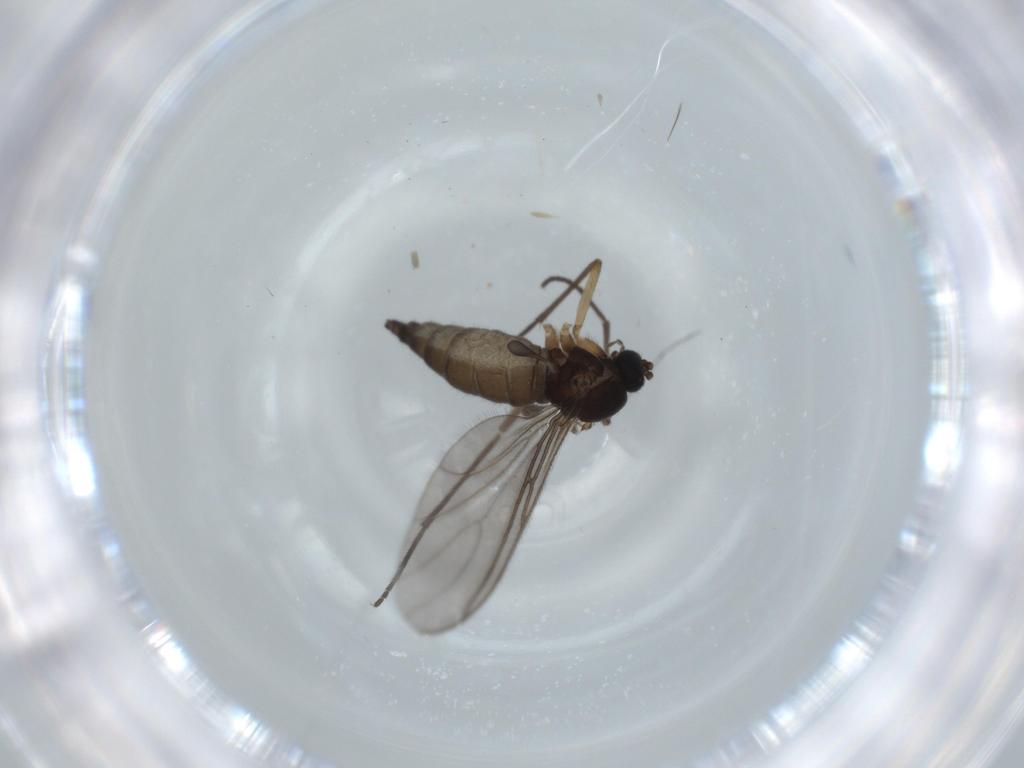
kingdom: Animalia
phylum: Arthropoda
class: Insecta
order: Diptera
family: Sciaridae
